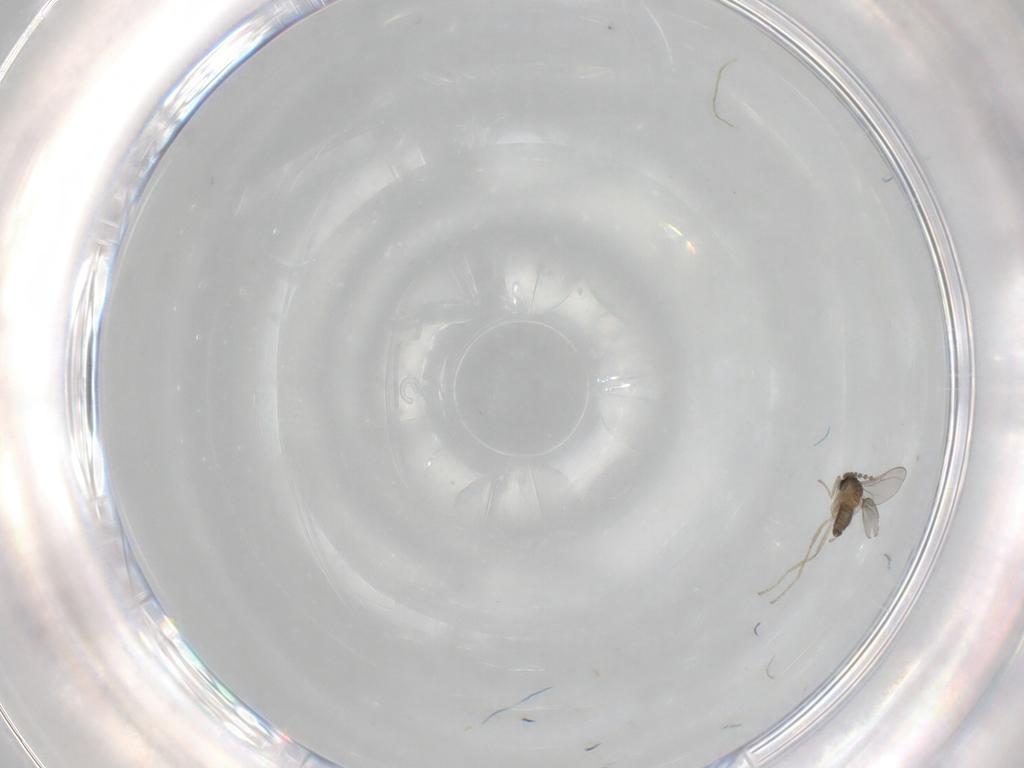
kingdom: Animalia
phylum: Arthropoda
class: Insecta
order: Diptera
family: Cecidomyiidae
